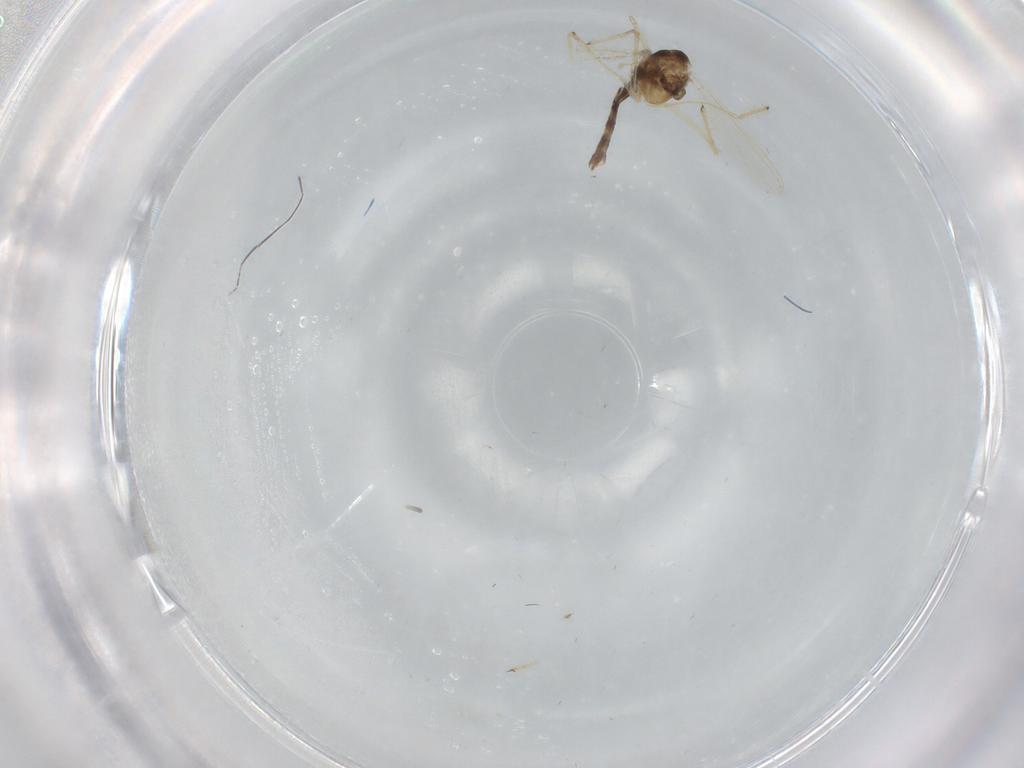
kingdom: Animalia
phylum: Arthropoda
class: Insecta
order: Diptera
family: Chironomidae
